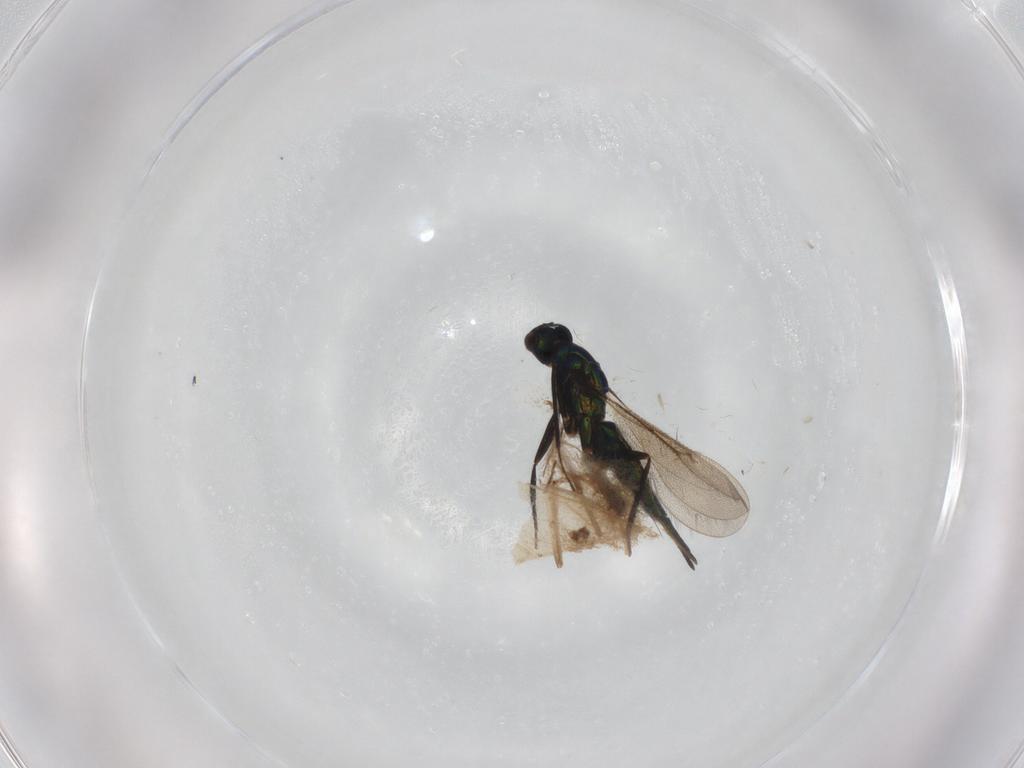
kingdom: Animalia
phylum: Arthropoda
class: Insecta
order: Hymenoptera
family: Eulophidae
